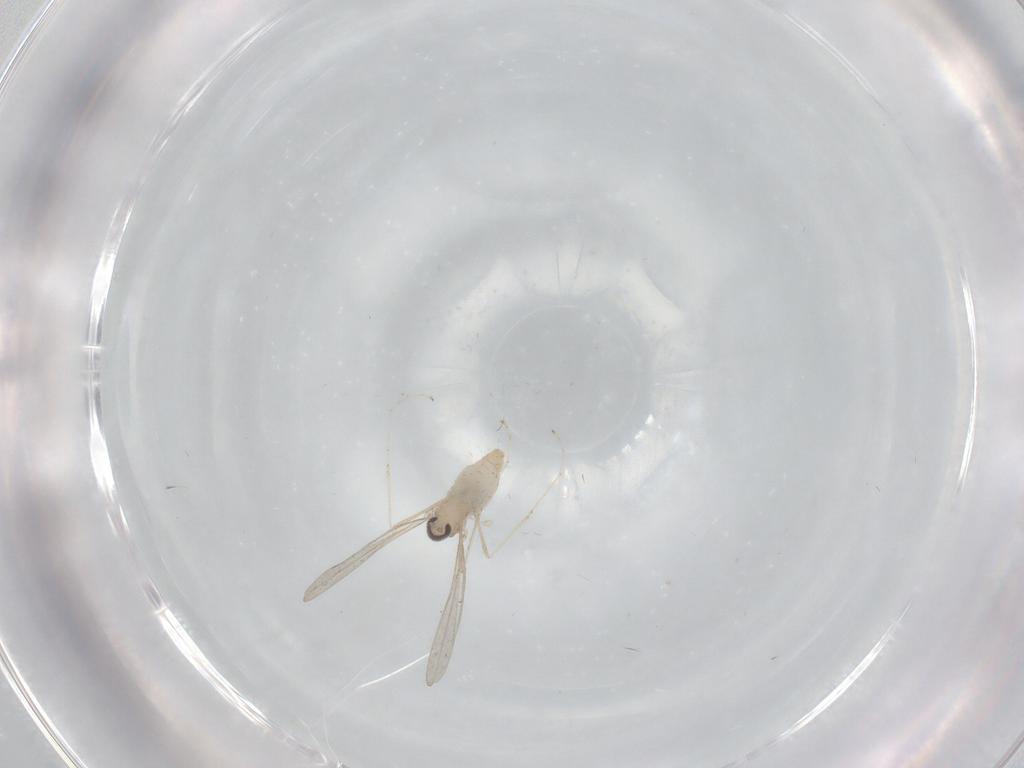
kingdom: Animalia
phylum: Arthropoda
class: Insecta
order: Diptera
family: Cecidomyiidae
